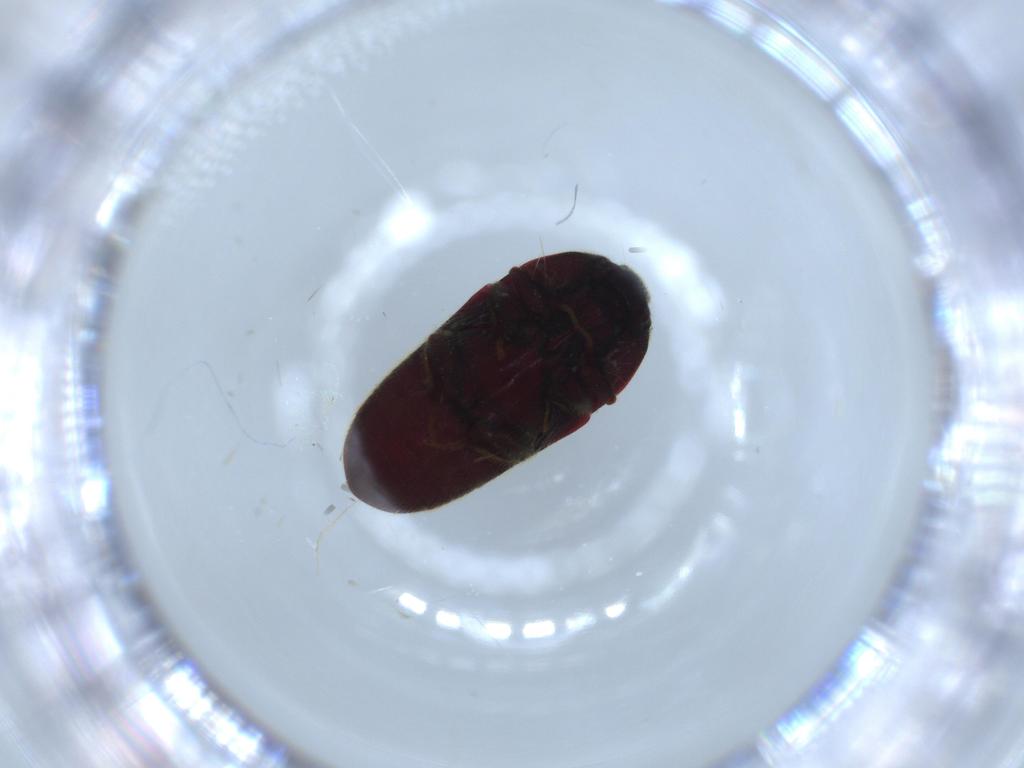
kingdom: Animalia
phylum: Arthropoda
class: Insecta
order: Coleoptera
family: Throscidae
